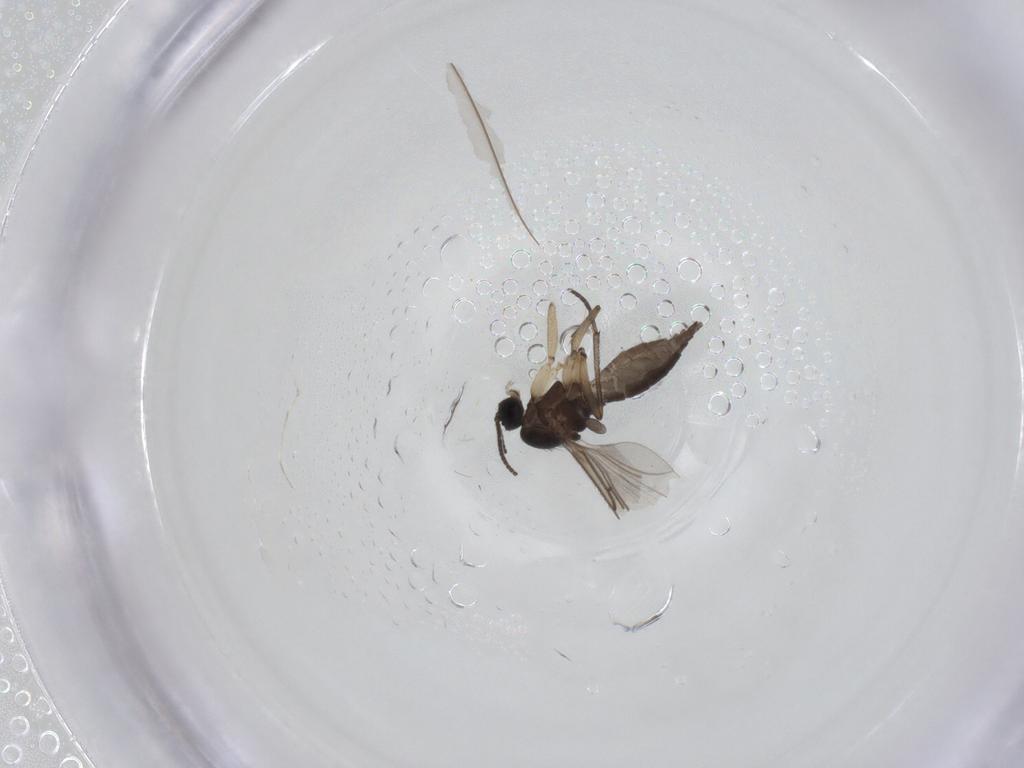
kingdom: Animalia
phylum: Arthropoda
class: Insecta
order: Diptera
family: Sciaridae
